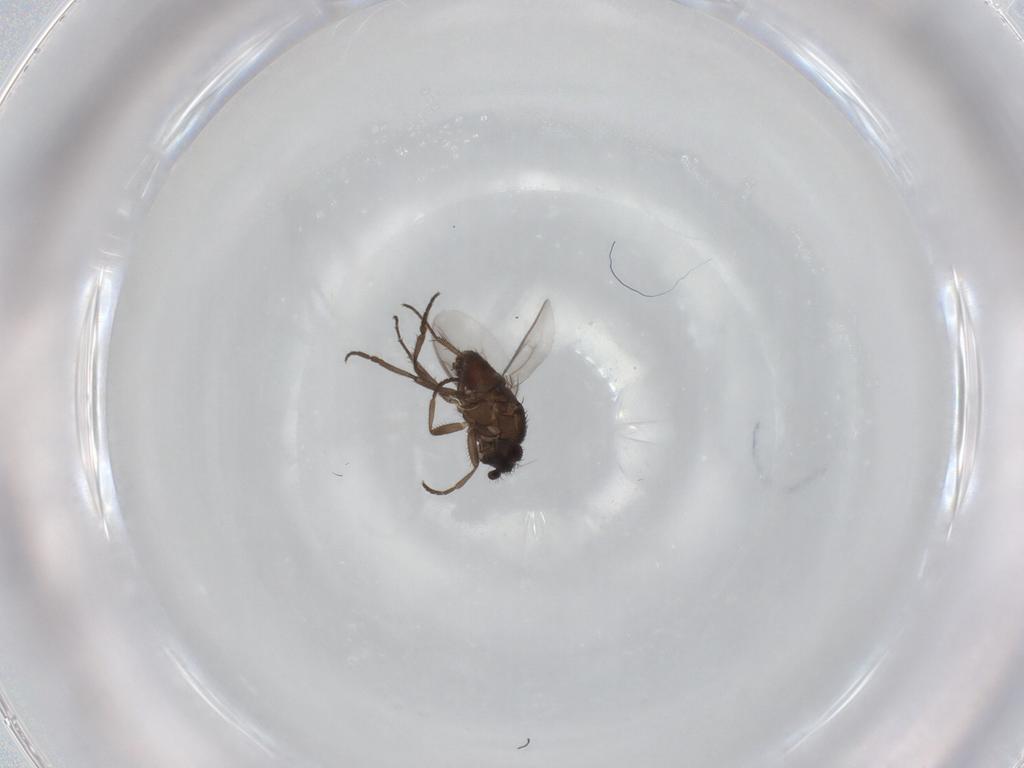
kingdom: Animalia
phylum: Arthropoda
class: Insecta
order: Diptera
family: Sphaeroceridae
